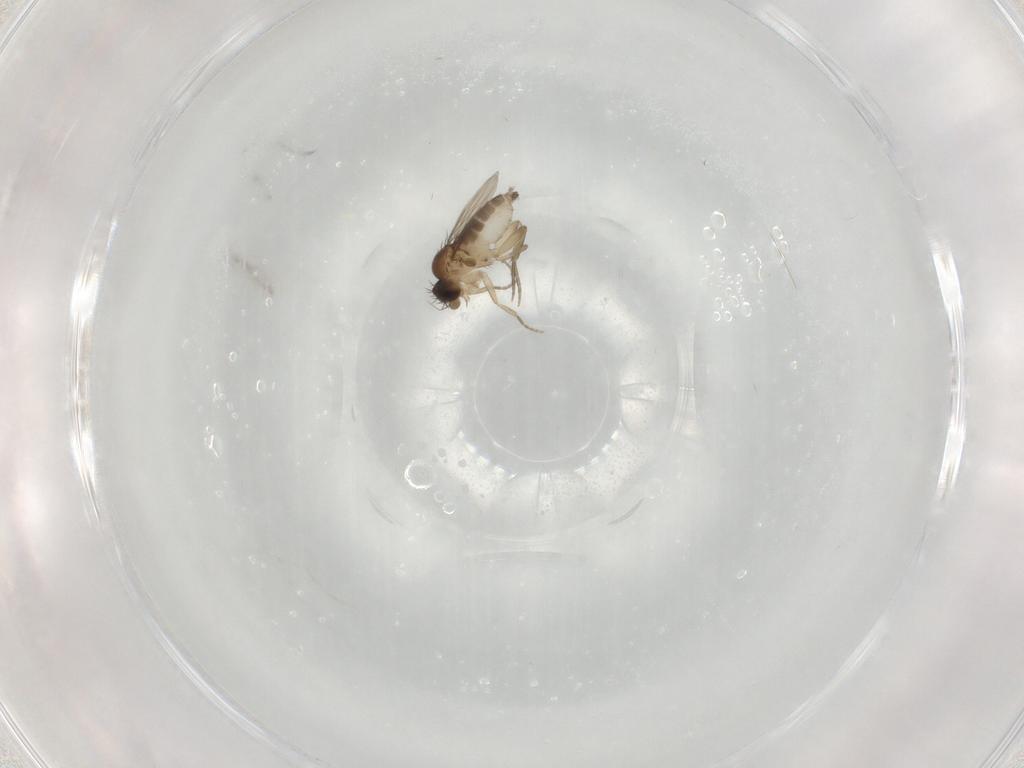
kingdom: Animalia
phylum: Arthropoda
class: Insecta
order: Diptera
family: Phoridae
